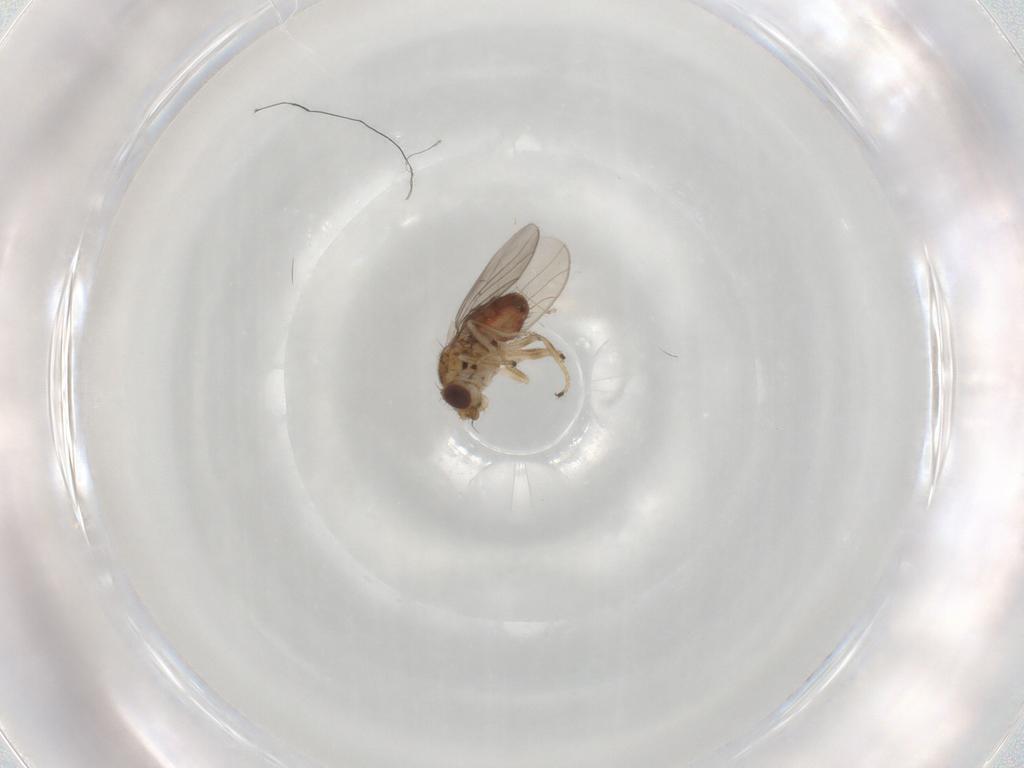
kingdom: Animalia
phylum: Arthropoda
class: Insecta
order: Diptera
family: Chloropidae
